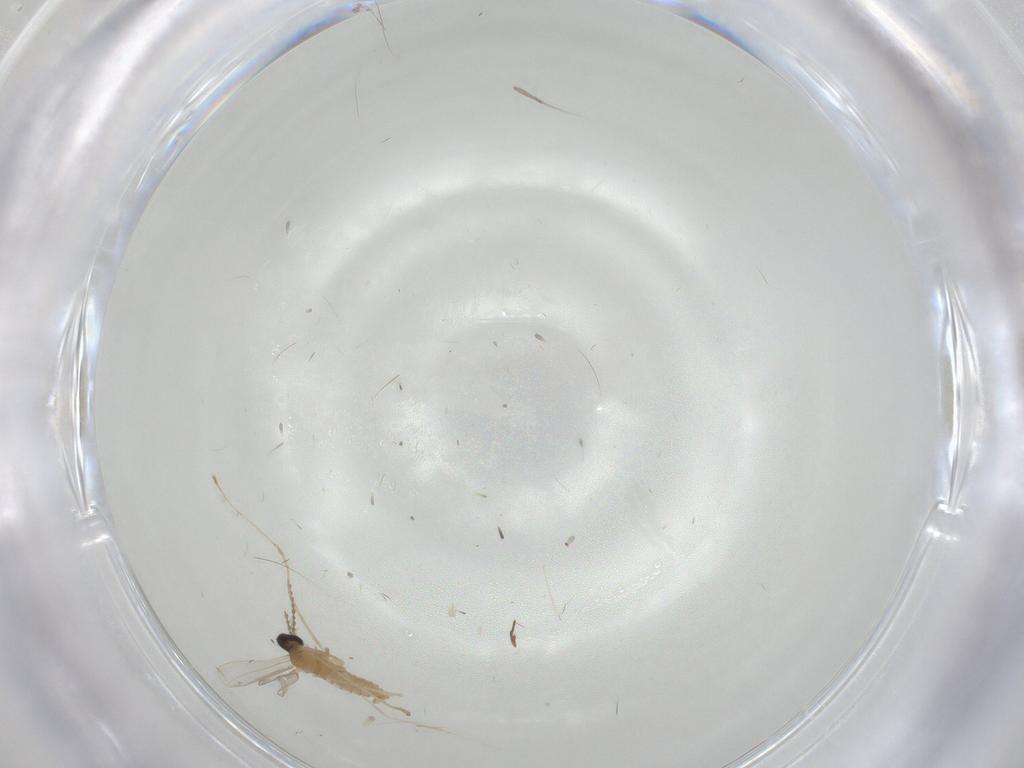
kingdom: Animalia
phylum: Arthropoda
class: Insecta
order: Diptera
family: Cecidomyiidae
